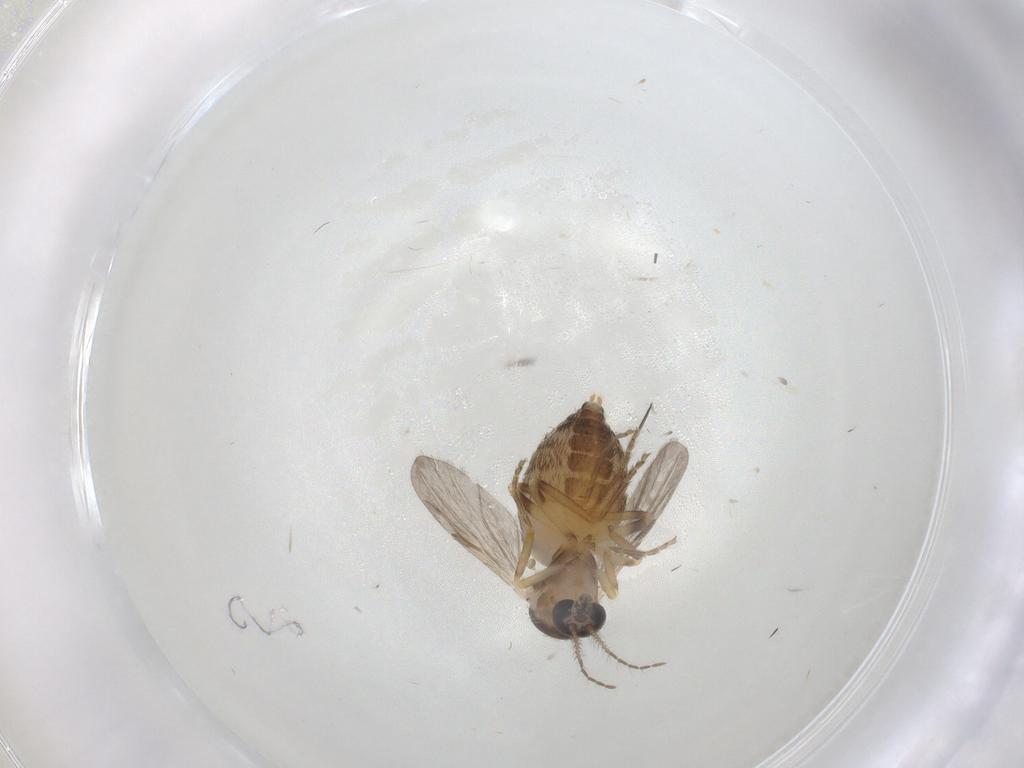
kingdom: Animalia
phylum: Arthropoda
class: Insecta
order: Diptera
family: Ceratopogonidae
